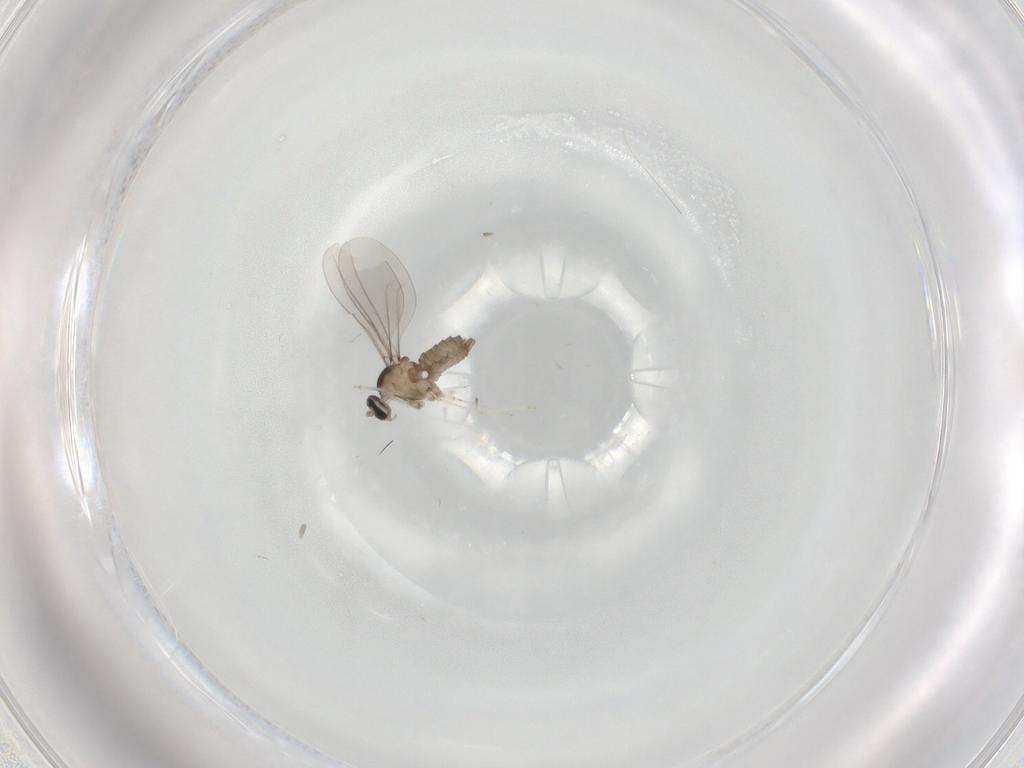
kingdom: Animalia
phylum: Arthropoda
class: Insecta
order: Diptera
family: Cecidomyiidae
